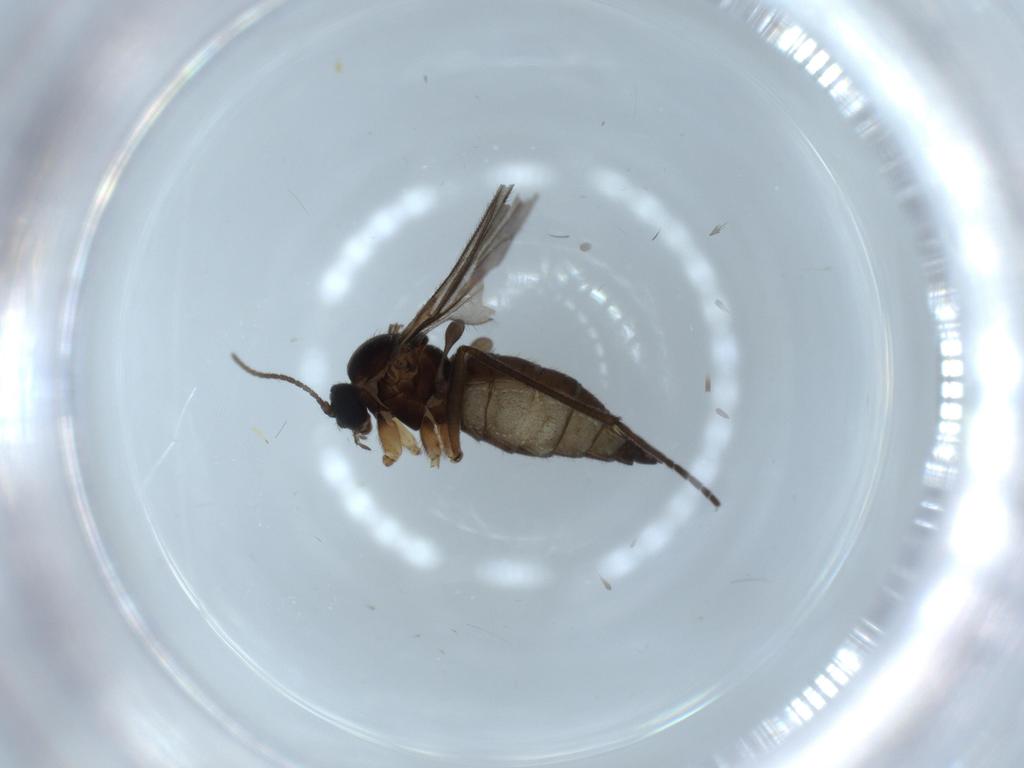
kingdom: Animalia
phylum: Arthropoda
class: Insecta
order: Diptera
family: Sciaridae
